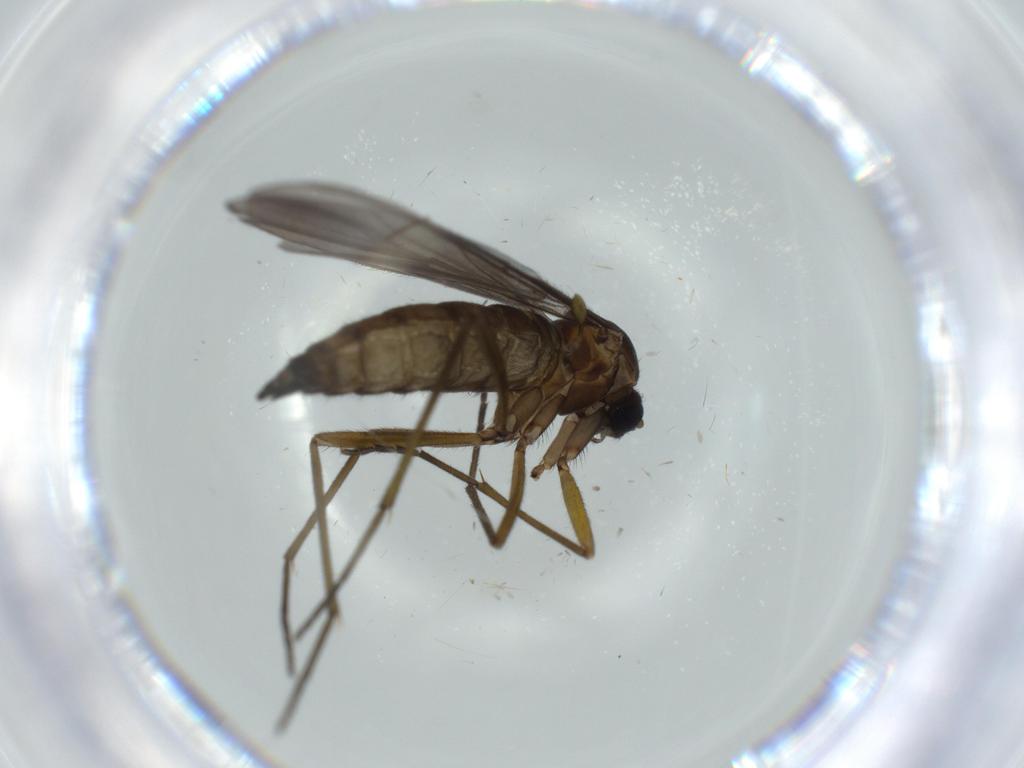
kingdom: Animalia
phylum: Arthropoda
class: Insecta
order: Diptera
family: Sciaridae
